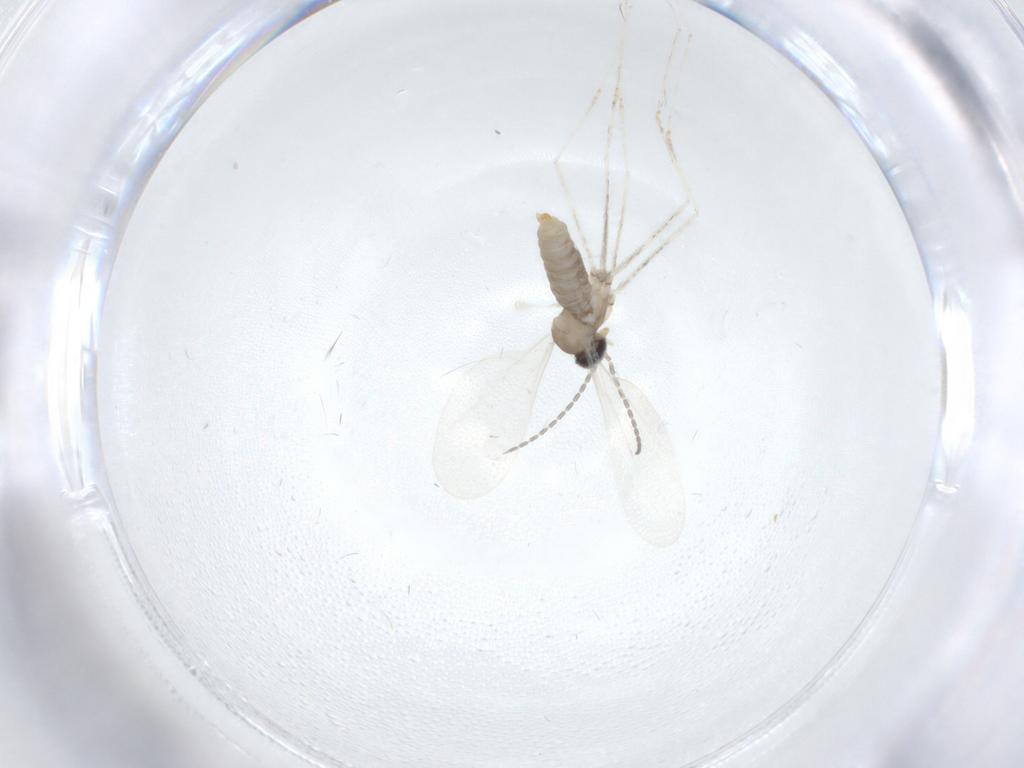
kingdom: Animalia
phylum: Arthropoda
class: Insecta
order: Diptera
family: Cecidomyiidae
